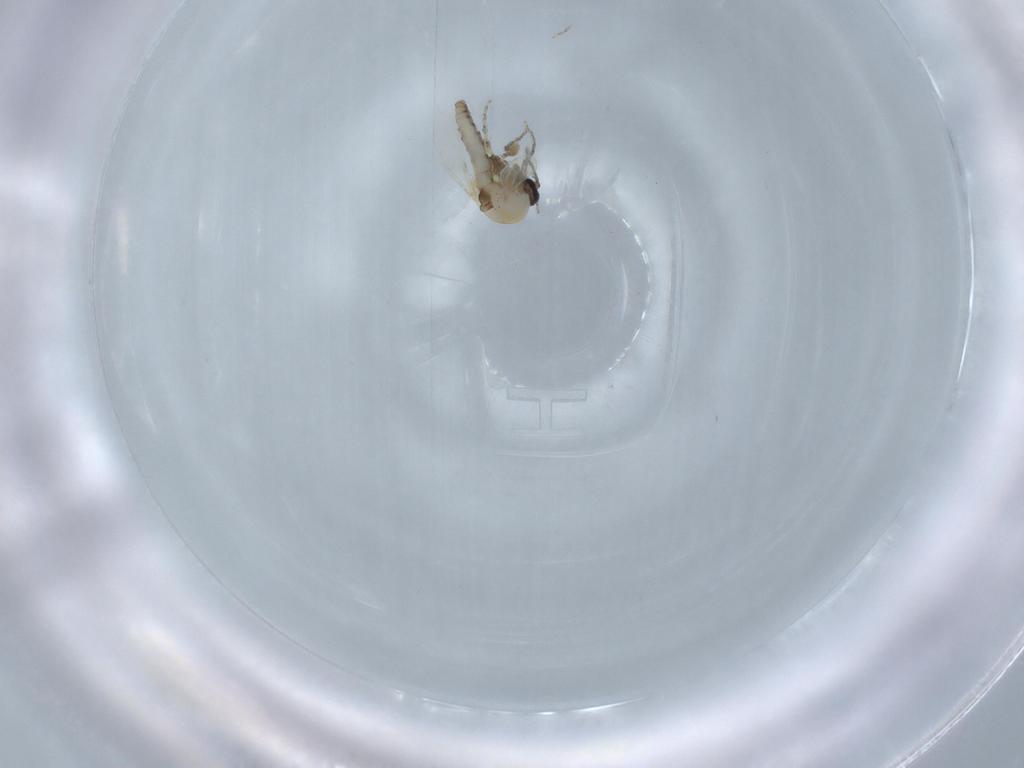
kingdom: Animalia
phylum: Arthropoda
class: Insecta
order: Diptera
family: Ceratopogonidae
